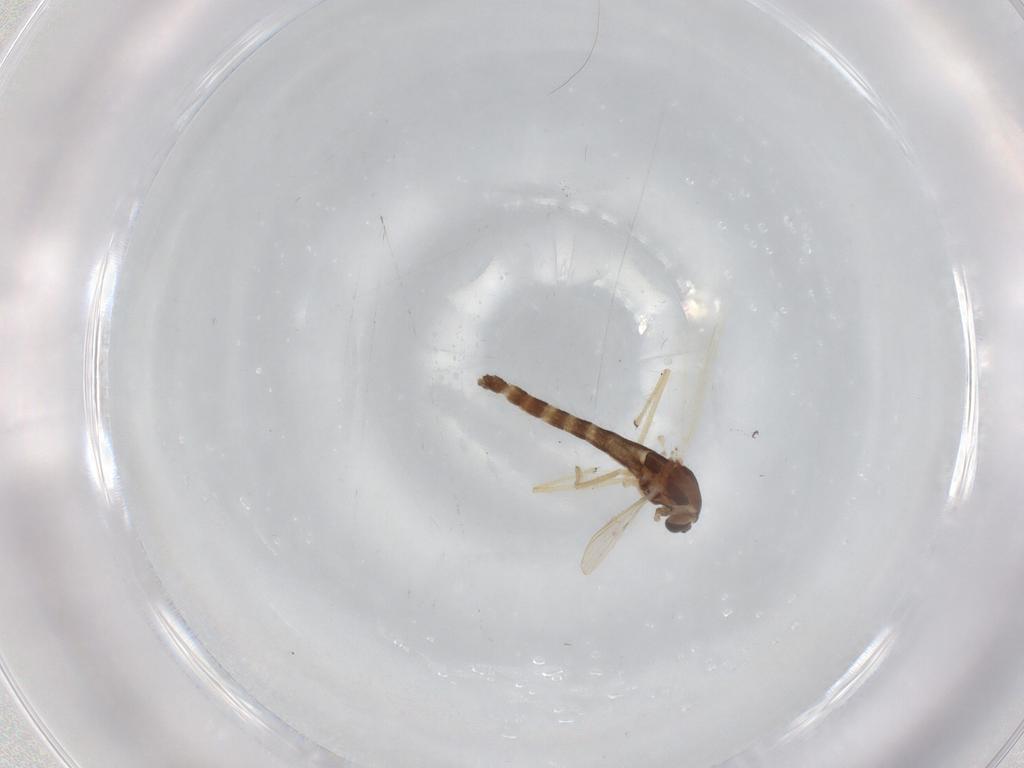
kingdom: Animalia
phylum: Arthropoda
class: Insecta
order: Diptera
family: Chironomidae
